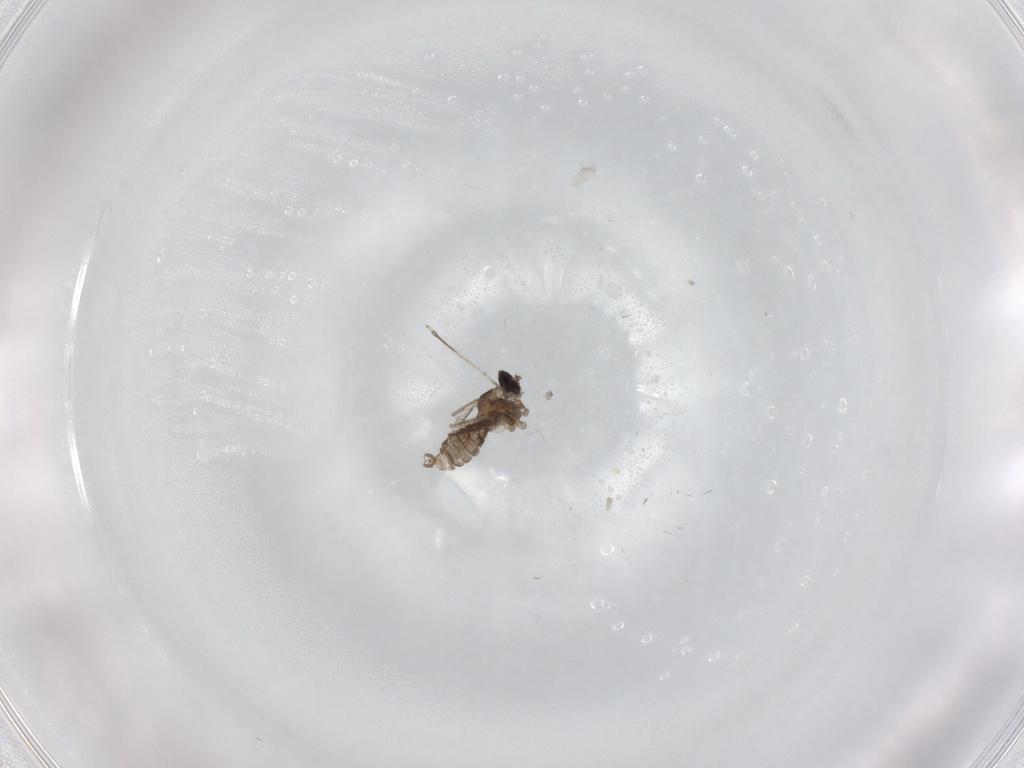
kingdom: Animalia
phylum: Arthropoda
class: Insecta
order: Diptera
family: Cecidomyiidae
